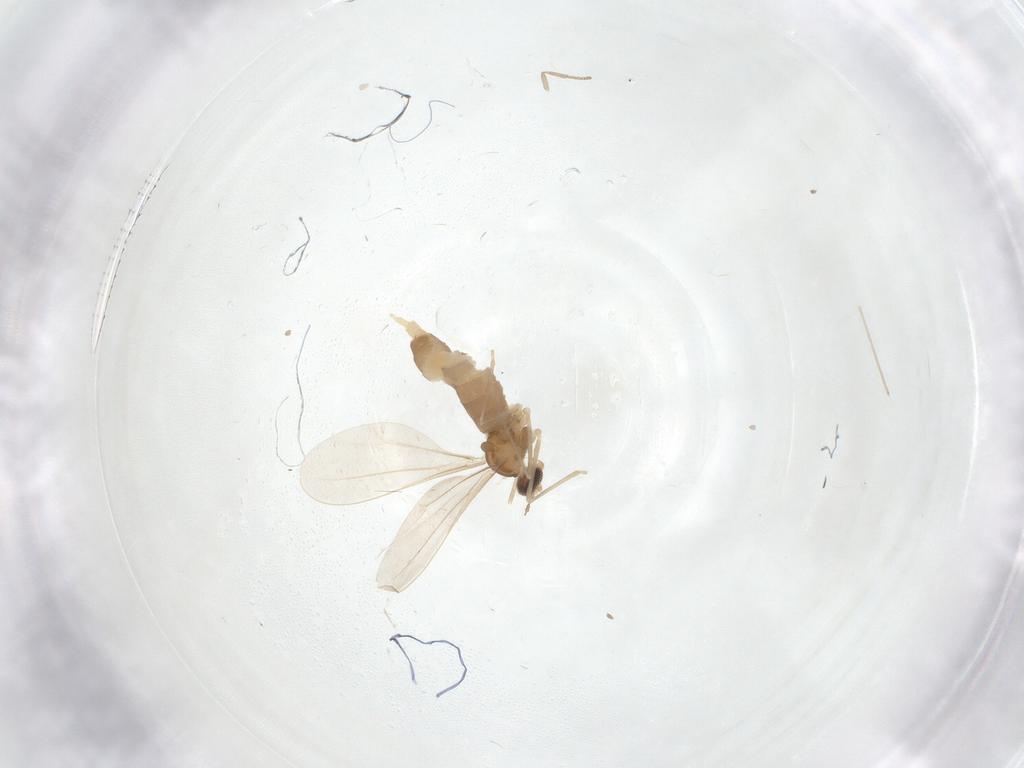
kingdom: Animalia
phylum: Arthropoda
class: Insecta
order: Diptera
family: Cecidomyiidae
